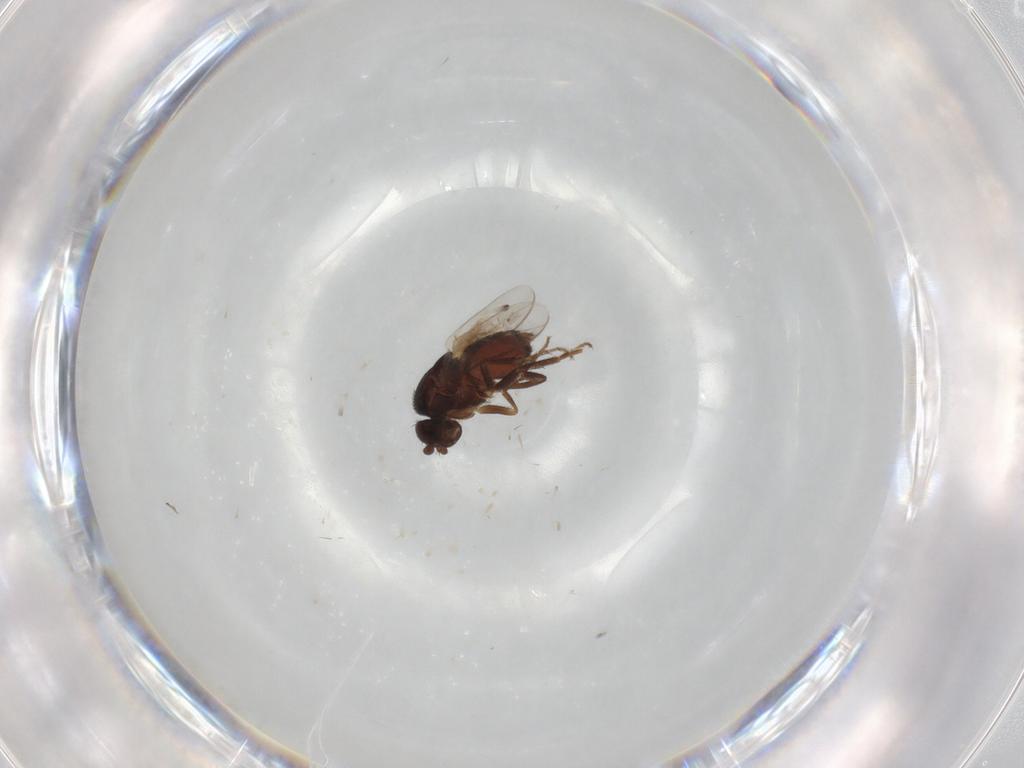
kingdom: Animalia
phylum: Arthropoda
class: Insecta
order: Diptera
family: Sphaeroceridae
